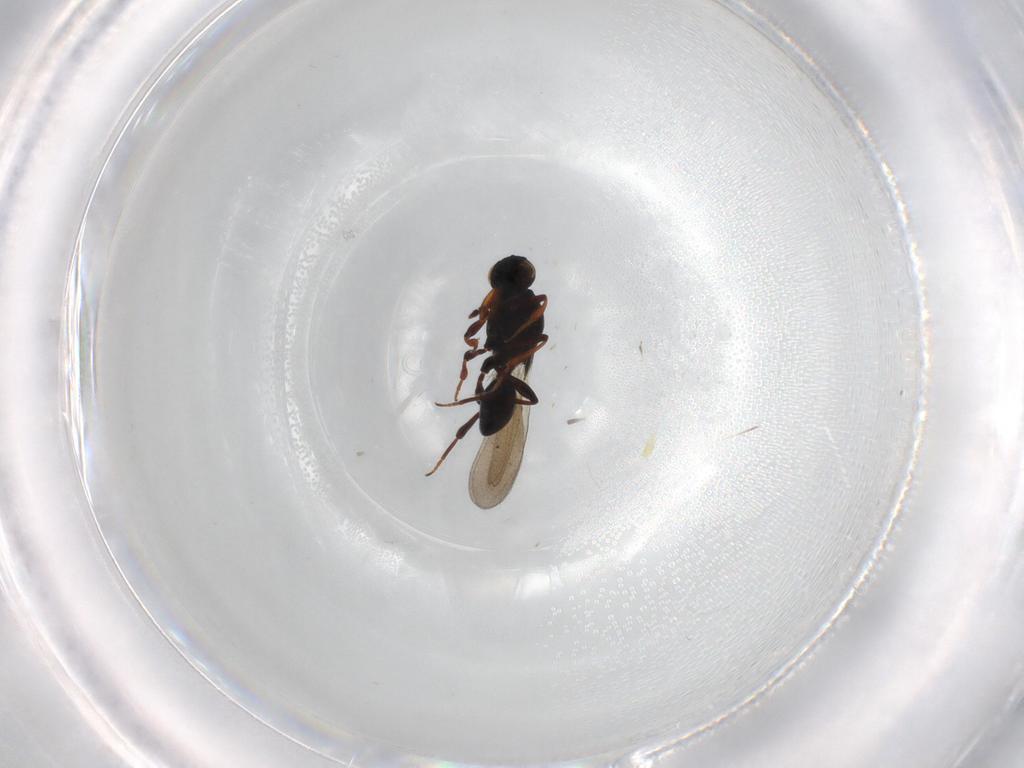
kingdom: Animalia
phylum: Arthropoda
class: Insecta
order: Hymenoptera
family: Platygastridae
